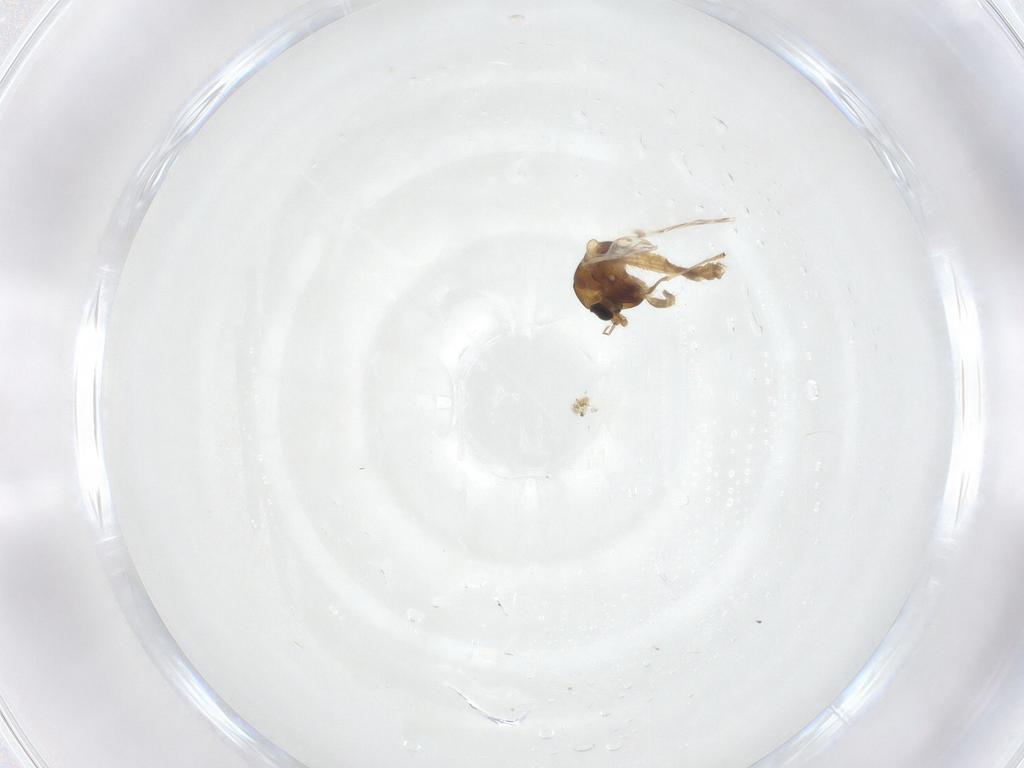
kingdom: Animalia
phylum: Arthropoda
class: Insecta
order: Diptera
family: Chironomidae
